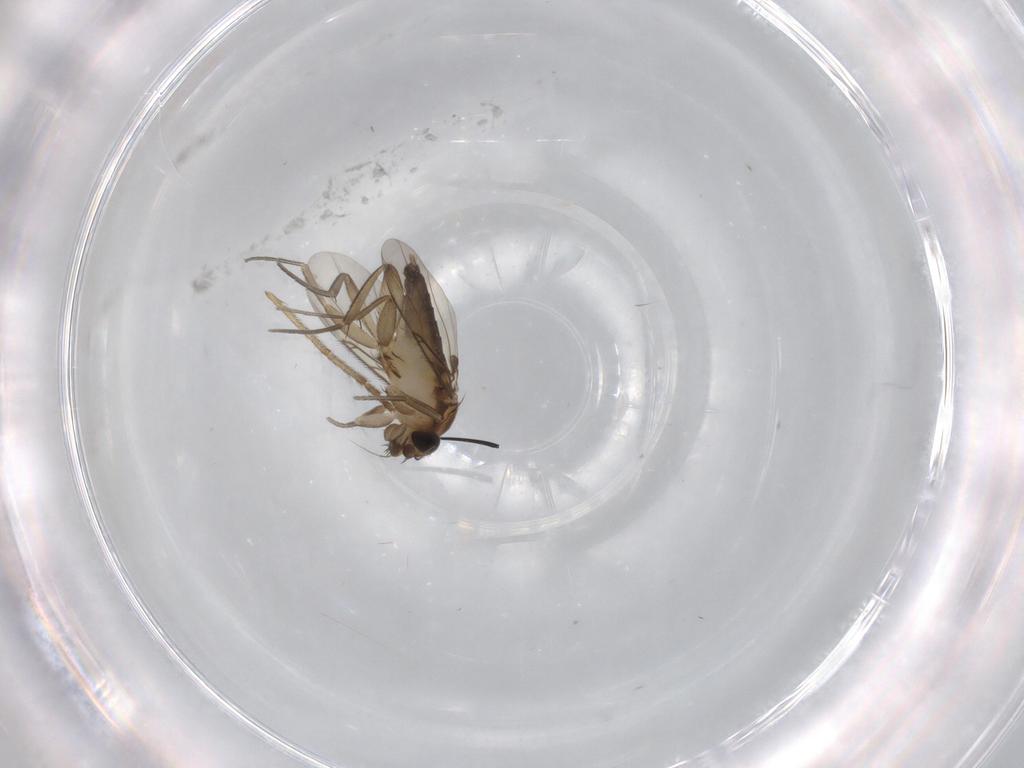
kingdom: Animalia
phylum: Arthropoda
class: Insecta
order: Diptera
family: Phoridae
